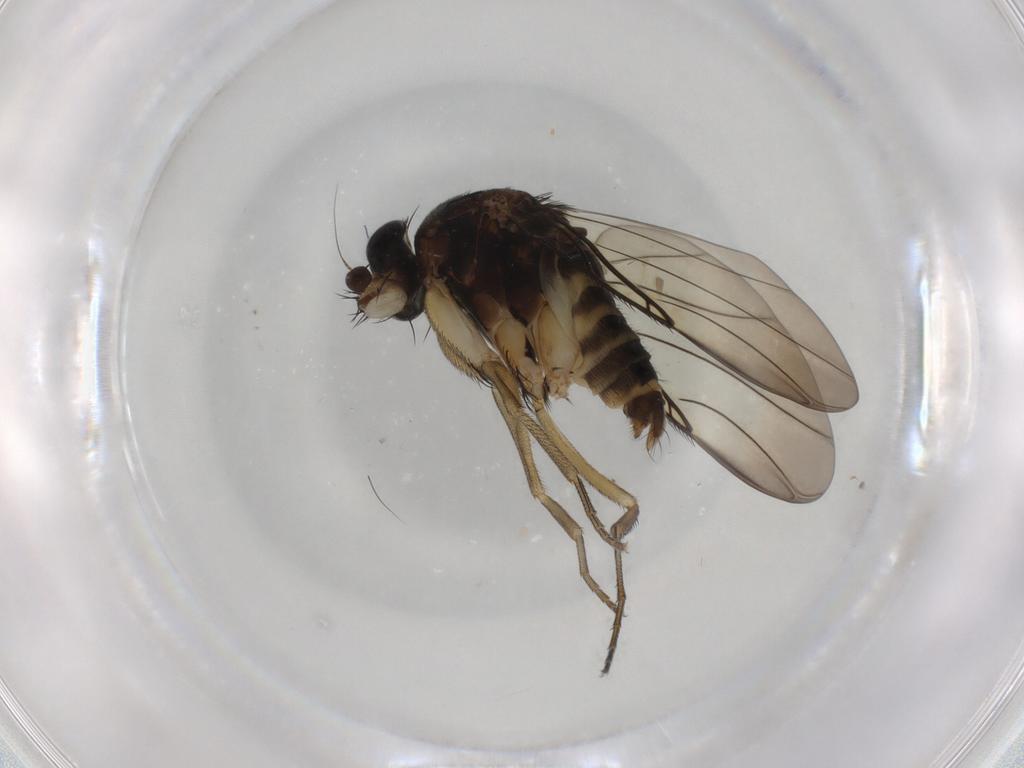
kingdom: Animalia
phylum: Arthropoda
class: Insecta
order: Diptera
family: Phoridae
